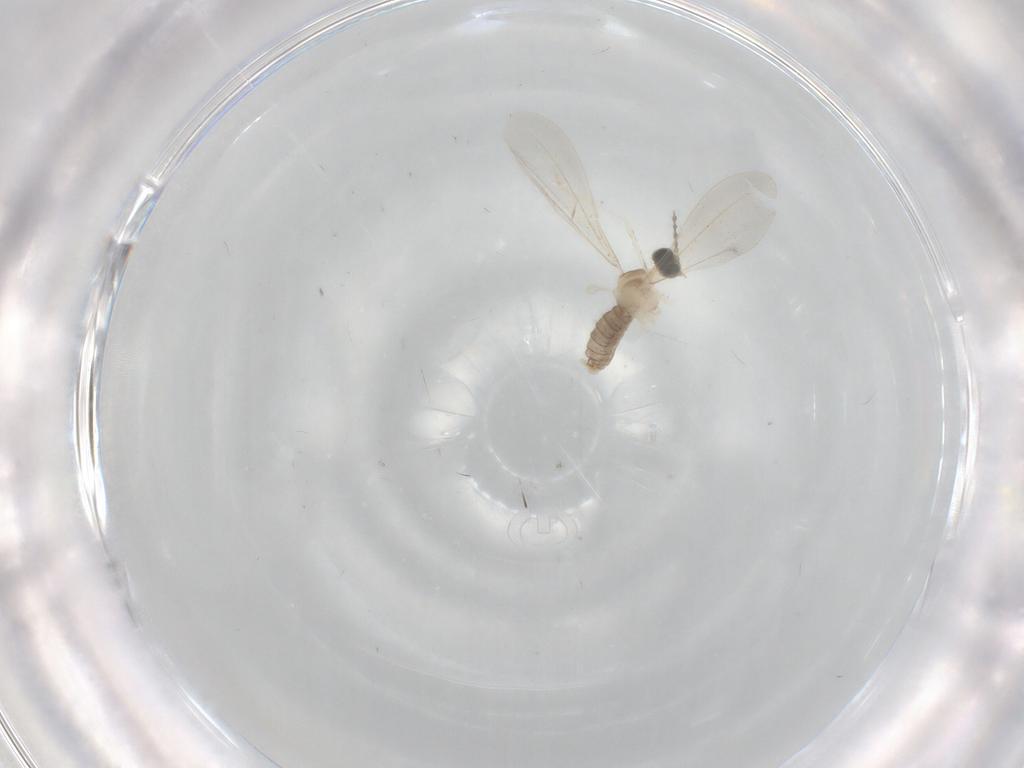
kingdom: Animalia
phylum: Arthropoda
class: Insecta
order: Diptera
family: Cecidomyiidae
